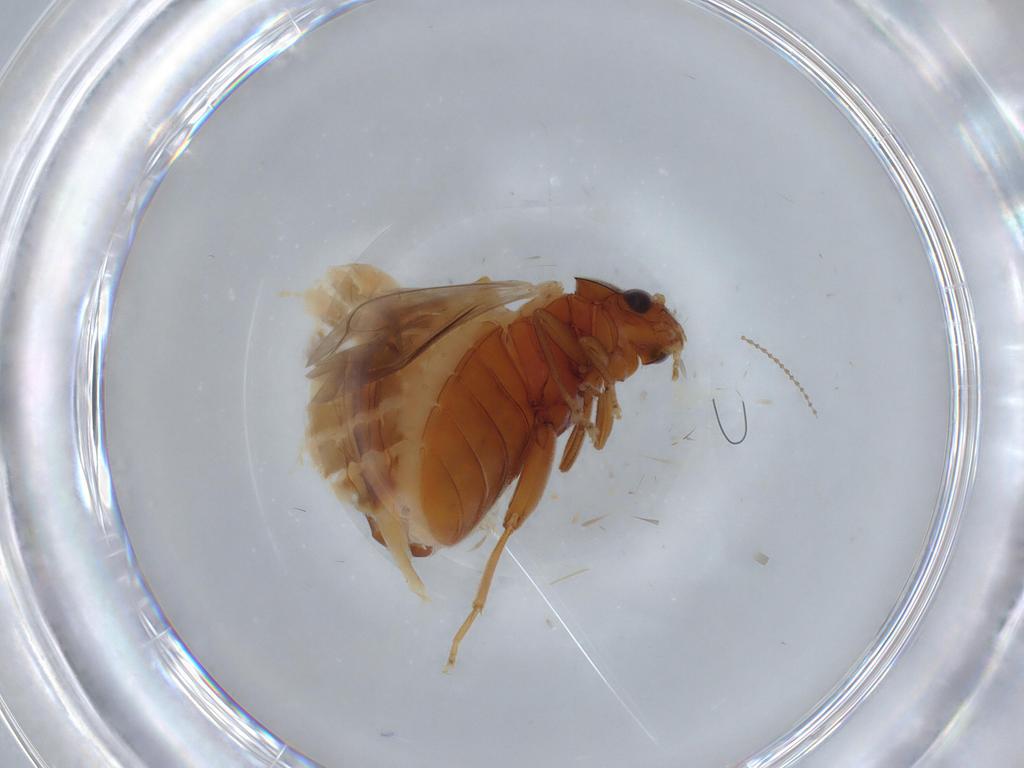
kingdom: Animalia
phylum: Arthropoda
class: Insecta
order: Coleoptera
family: Aderidae
